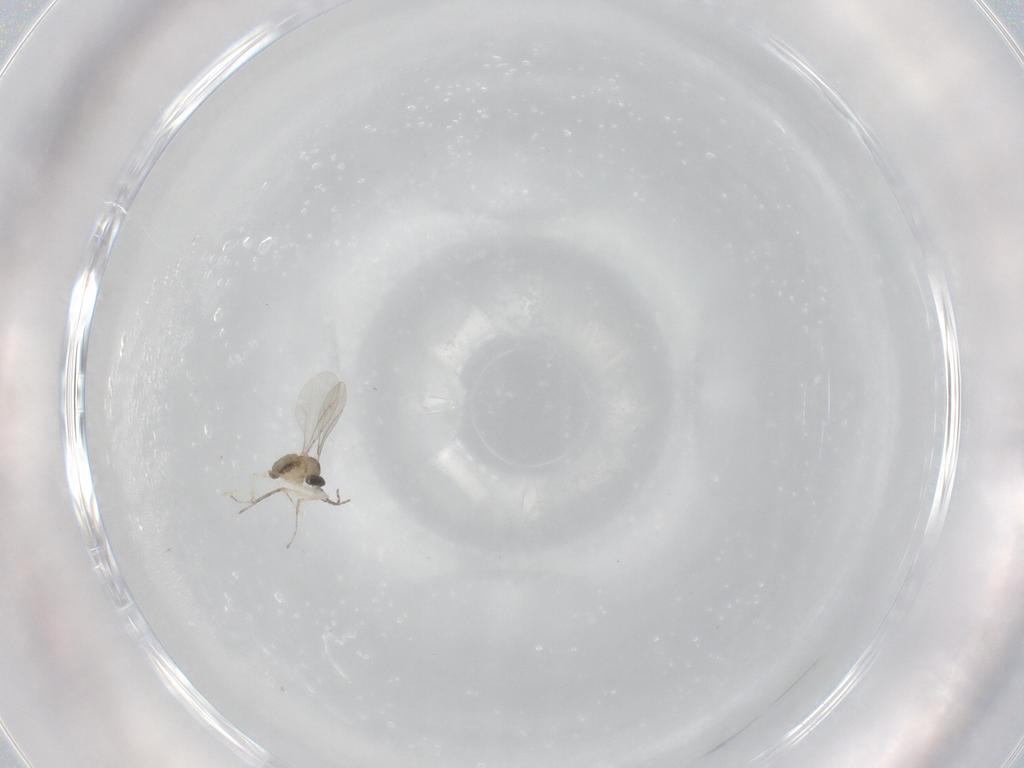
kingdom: Animalia
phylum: Arthropoda
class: Insecta
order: Diptera
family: Cecidomyiidae
